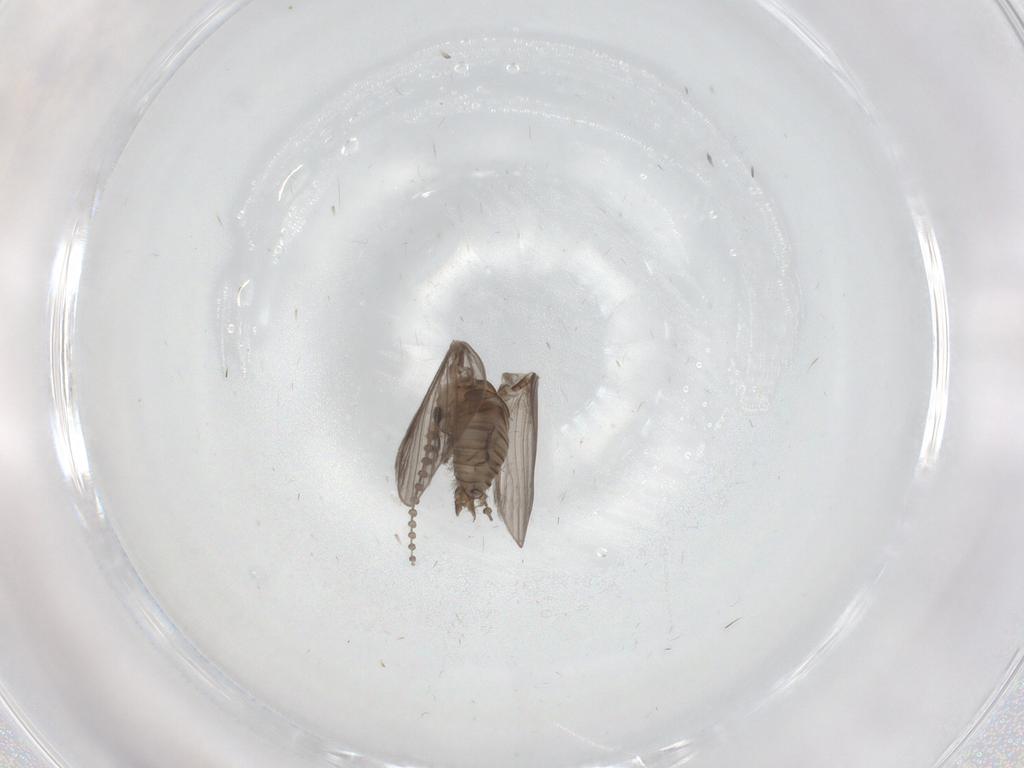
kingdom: Animalia
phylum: Arthropoda
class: Insecta
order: Diptera
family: Psychodidae
